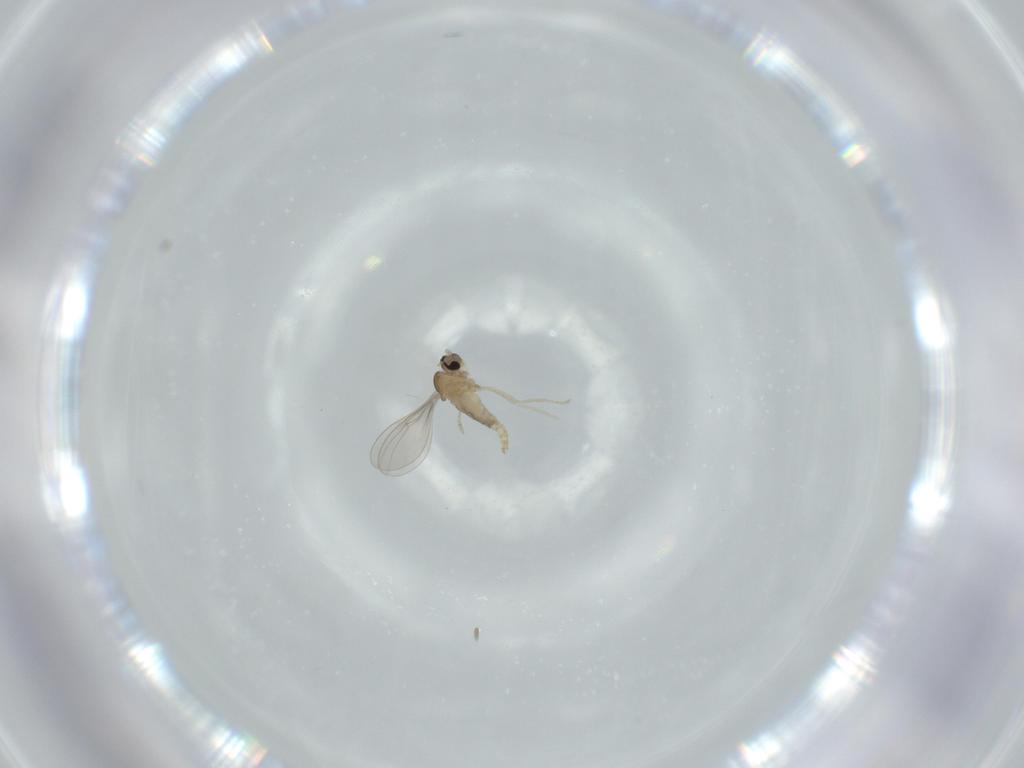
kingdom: Animalia
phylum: Arthropoda
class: Insecta
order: Diptera
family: Cecidomyiidae
